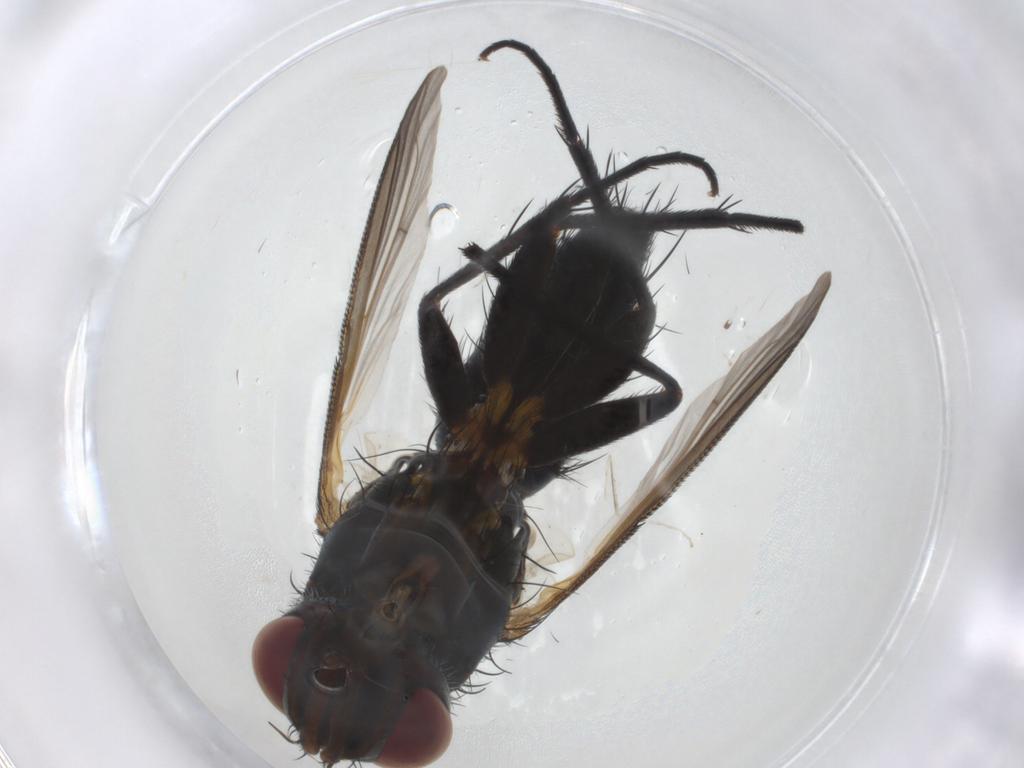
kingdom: Animalia
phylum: Arthropoda
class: Insecta
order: Diptera
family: Tachinidae
